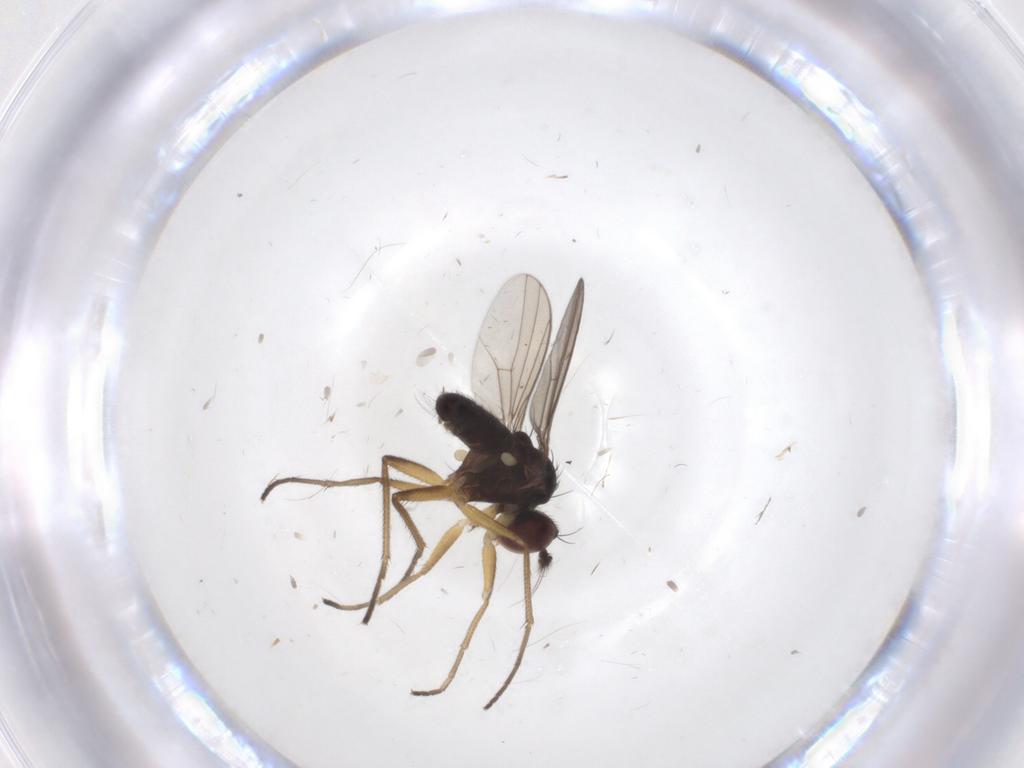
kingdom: Animalia
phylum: Arthropoda
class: Insecta
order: Diptera
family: Dolichopodidae
